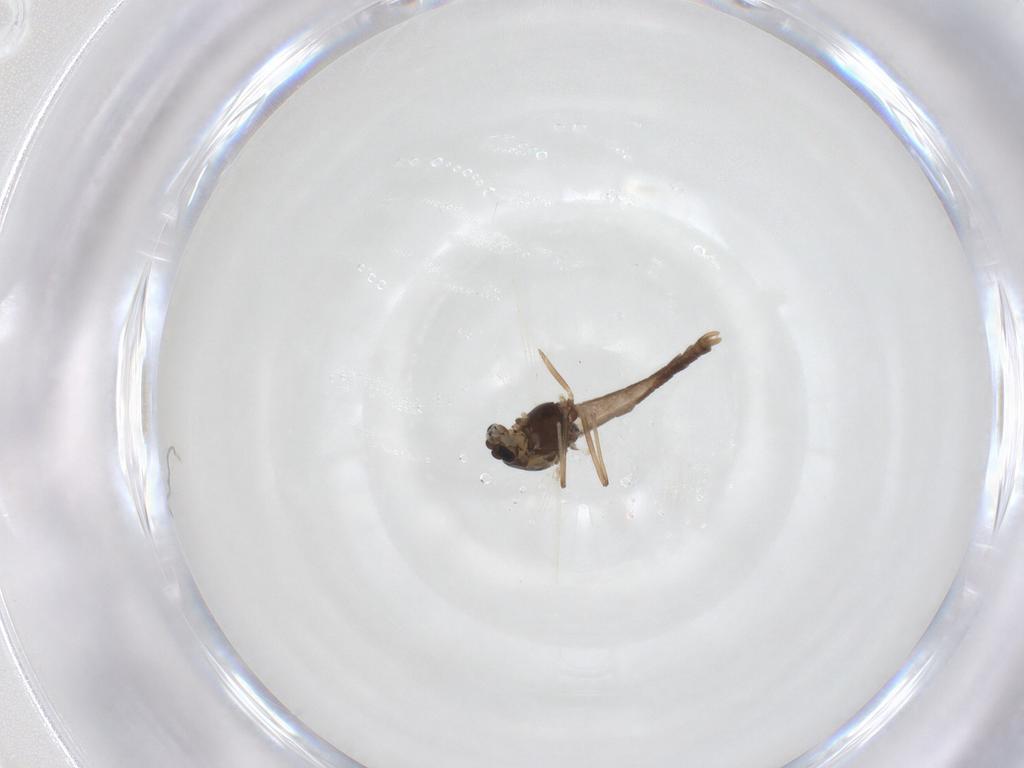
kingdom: Animalia
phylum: Arthropoda
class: Insecta
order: Diptera
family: Chironomidae
